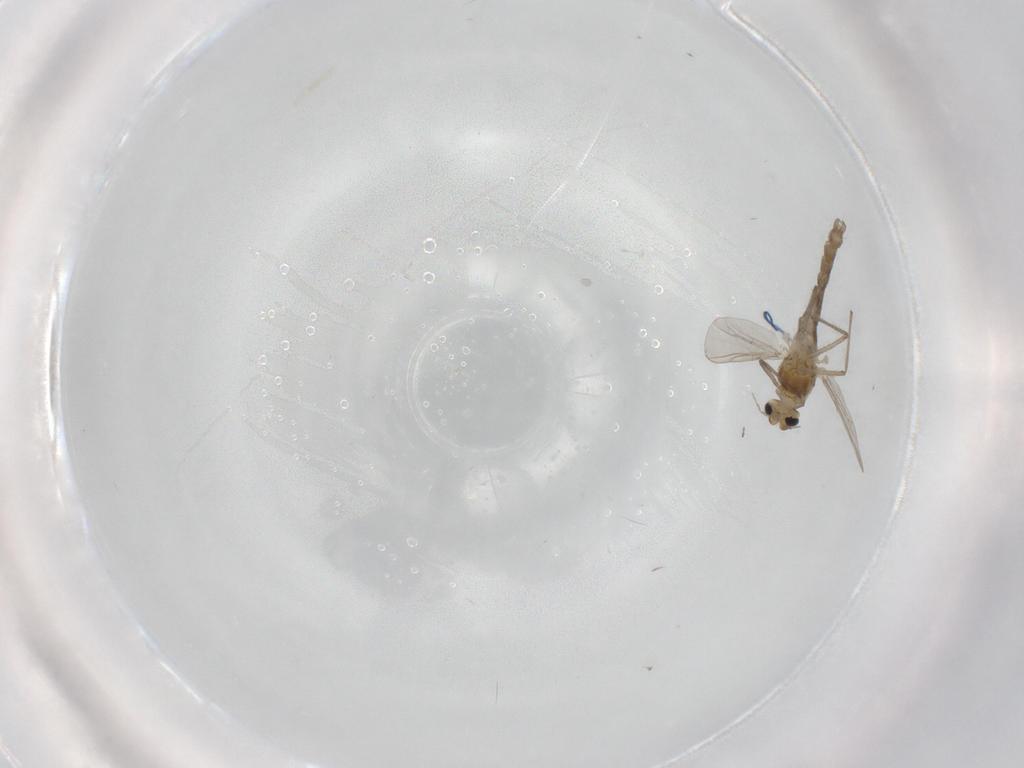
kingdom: Animalia
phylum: Arthropoda
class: Insecta
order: Diptera
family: Chironomidae
